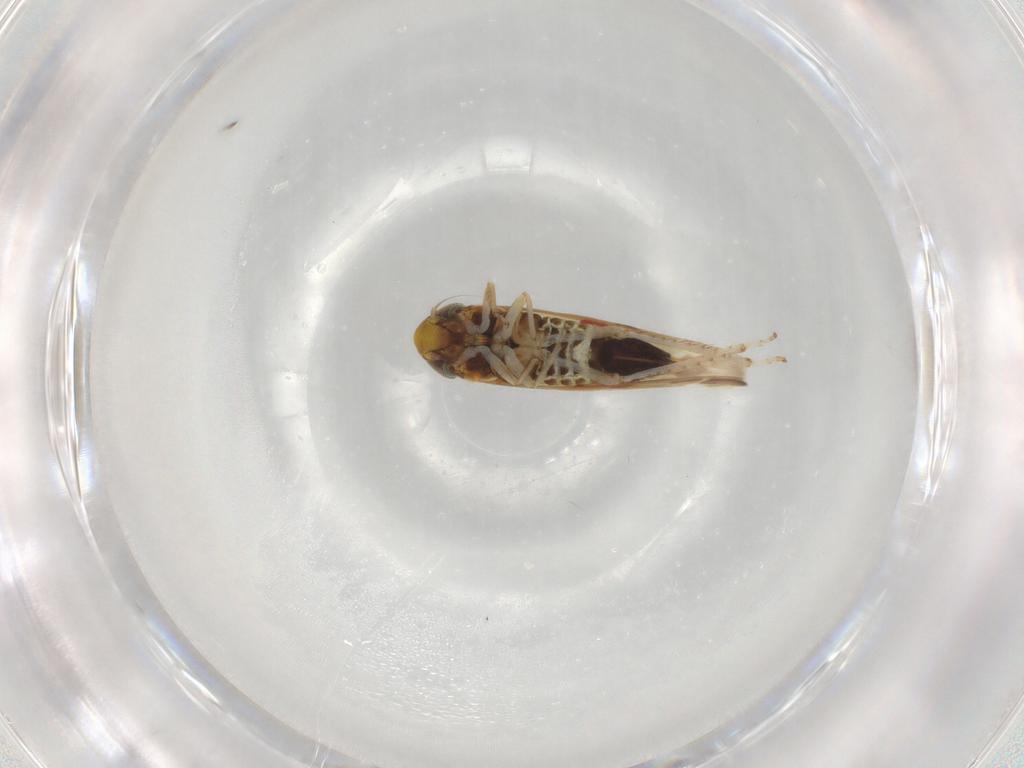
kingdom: Animalia
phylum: Arthropoda
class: Insecta
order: Hemiptera
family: Cicadellidae
